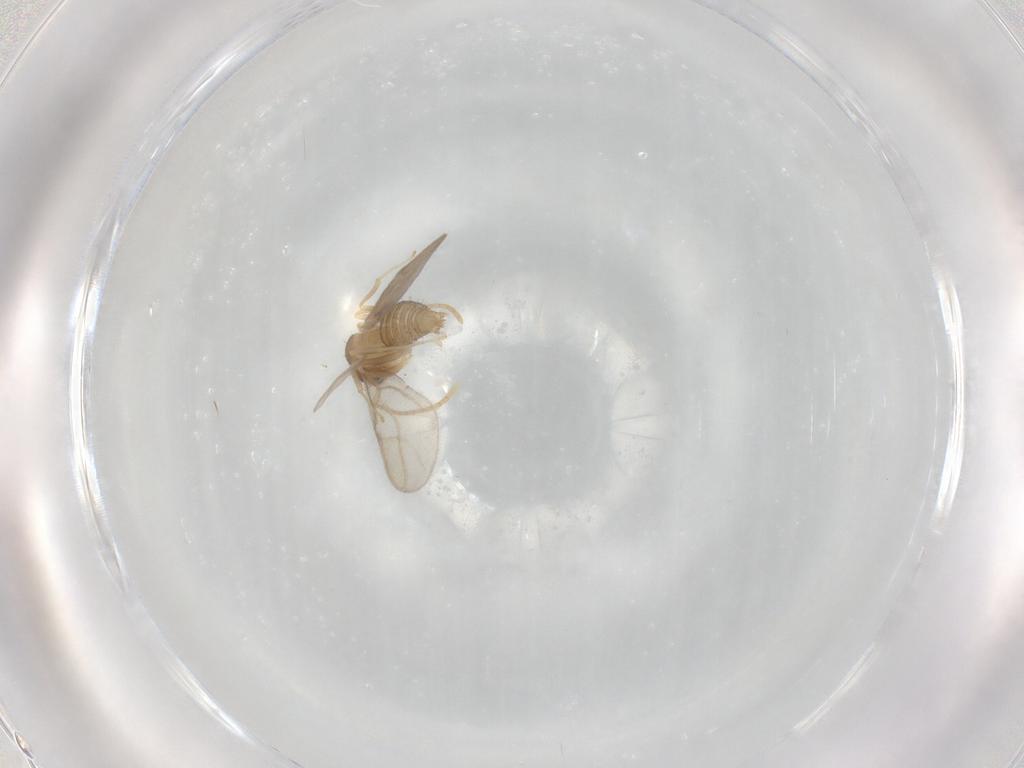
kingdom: Animalia
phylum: Arthropoda
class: Insecta
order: Hymenoptera
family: Formicidae
